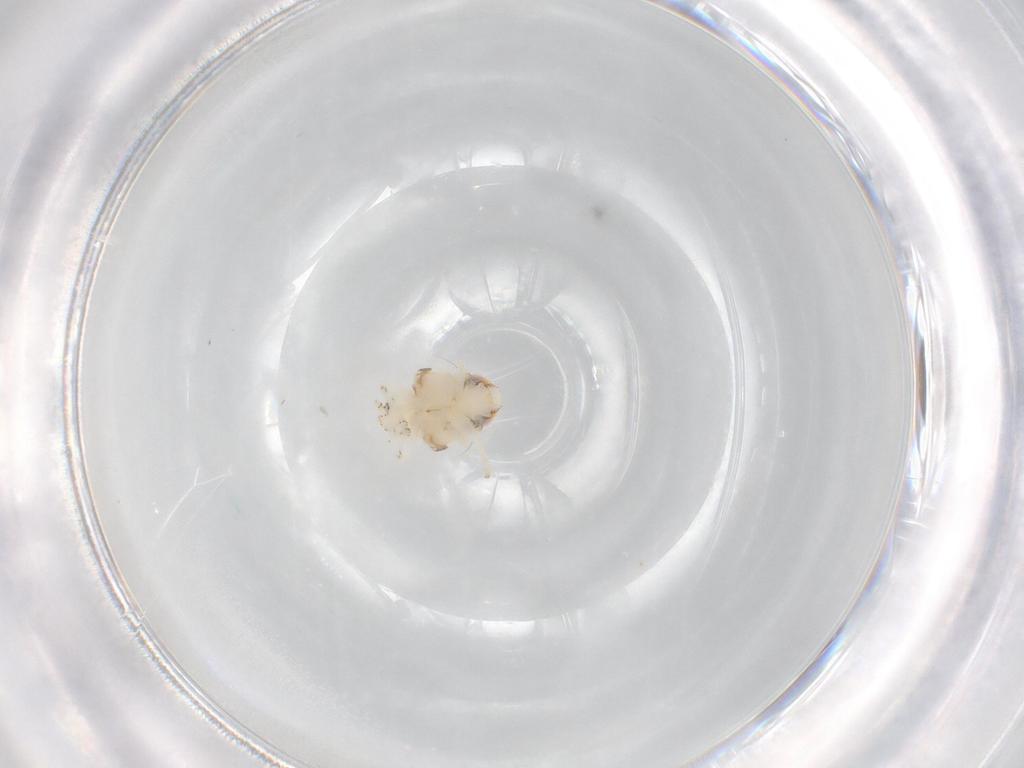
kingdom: Animalia
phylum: Arthropoda
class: Insecta
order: Hemiptera
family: Nogodinidae
